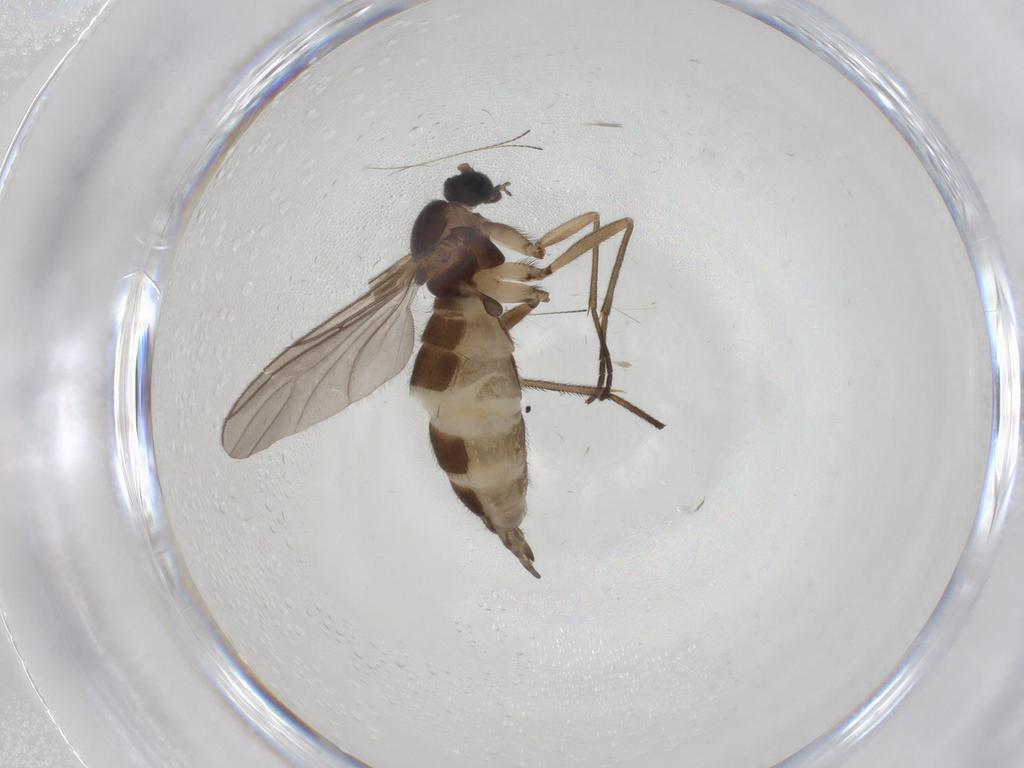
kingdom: Animalia
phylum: Arthropoda
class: Insecta
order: Diptera
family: Sciaridae
